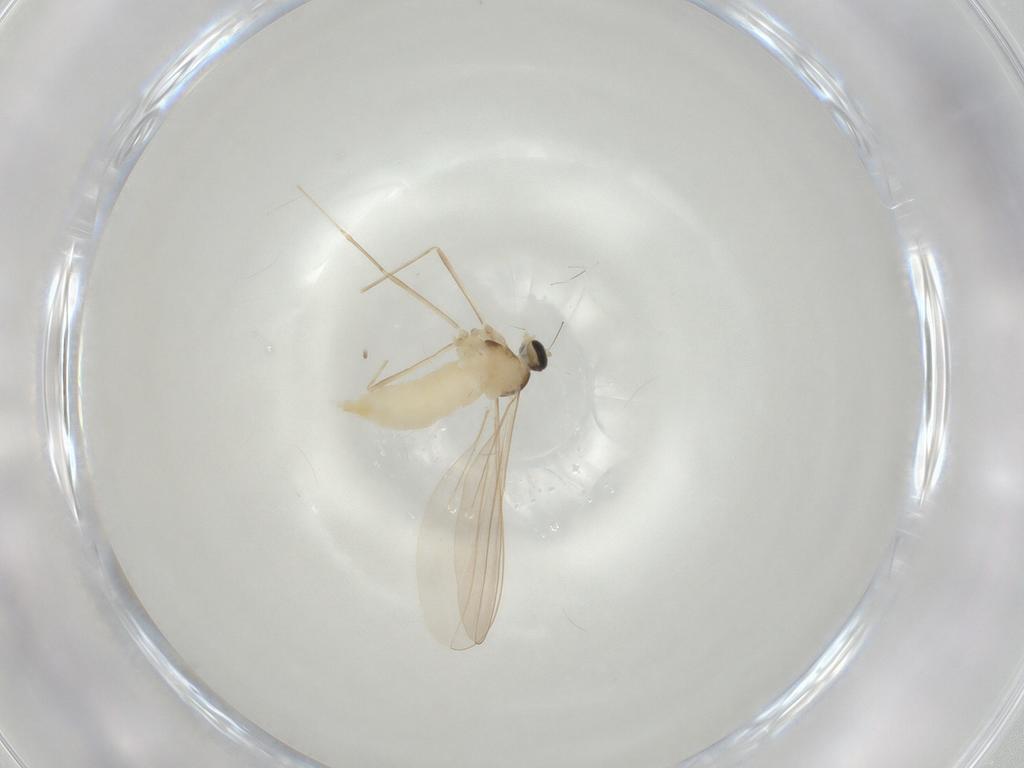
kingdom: Animalia
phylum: Arthropoda
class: Insecta
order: Diptera
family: Cecidomyiidae
